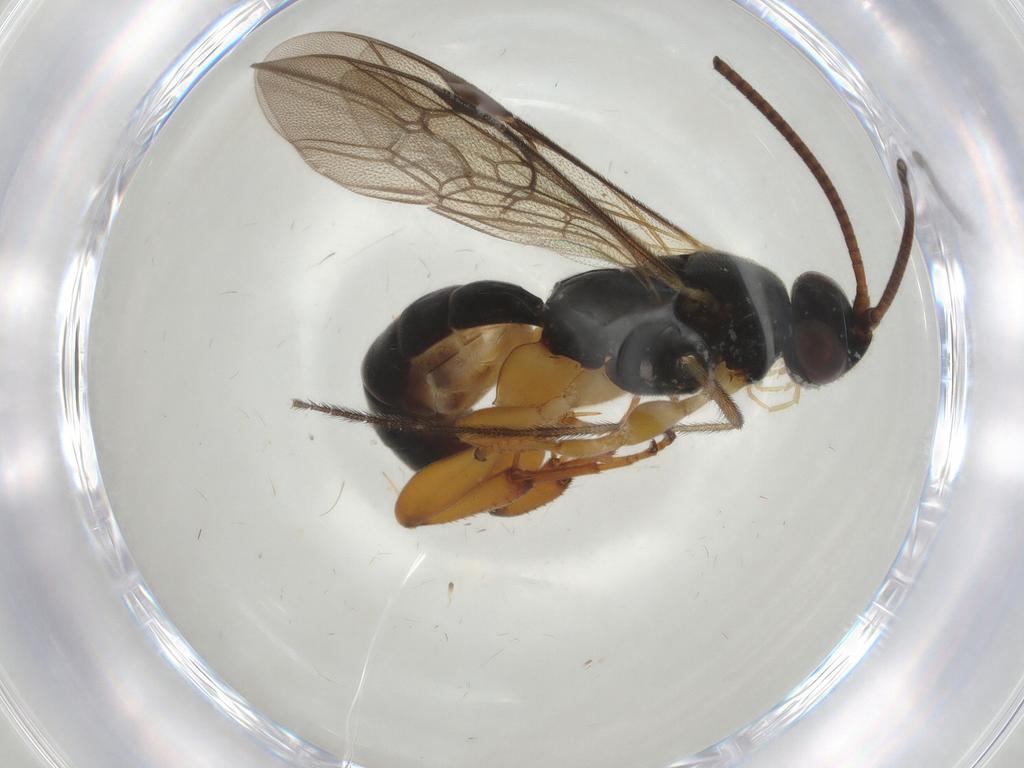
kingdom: Animalia
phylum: Arthropoda
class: Insecta
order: Hymenoptera
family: Ichneumonidae
